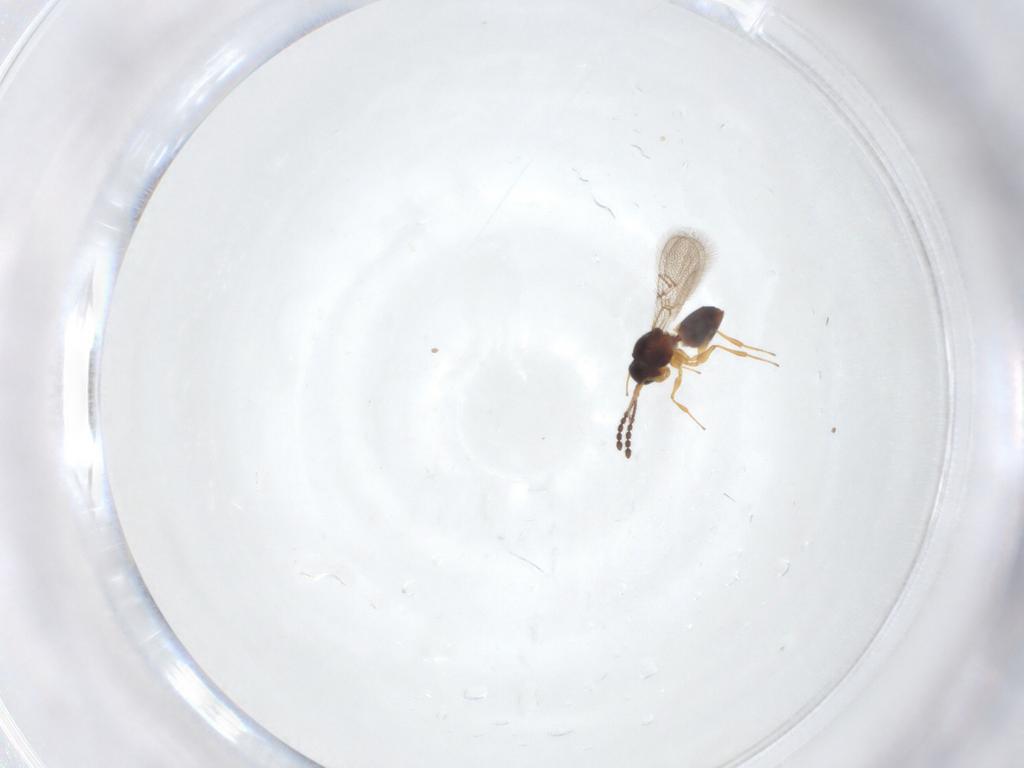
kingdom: Animalia
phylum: Arthropoda
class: Insecta
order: Hymenoptera
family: Figitidae
